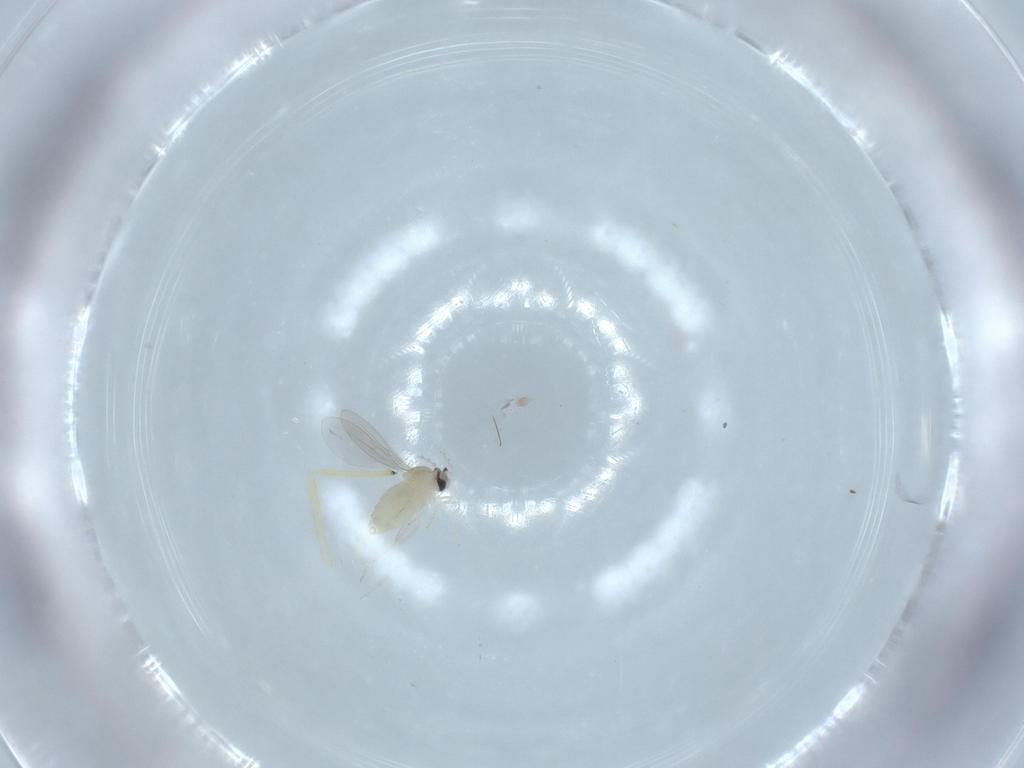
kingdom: Animalia
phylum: Arthropoda
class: Insecta
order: Diptera
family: Cecidomyiidae
